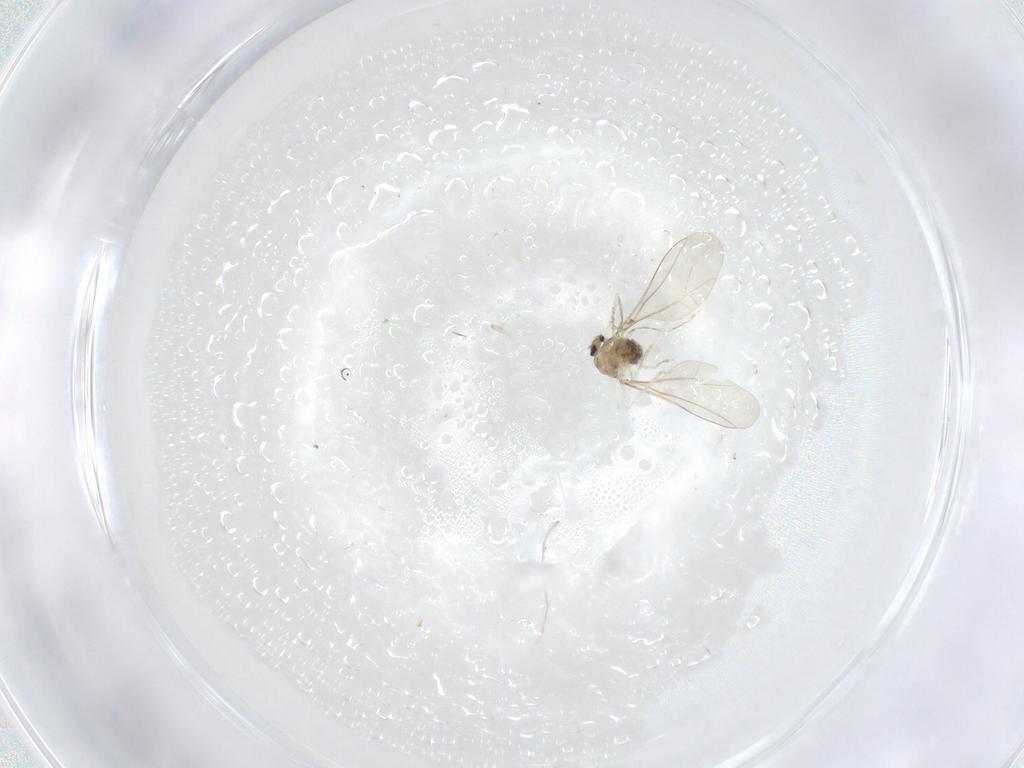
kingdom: Animalia
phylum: Arthropoda
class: Insecta
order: Diptera
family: Cecidomyiidae
